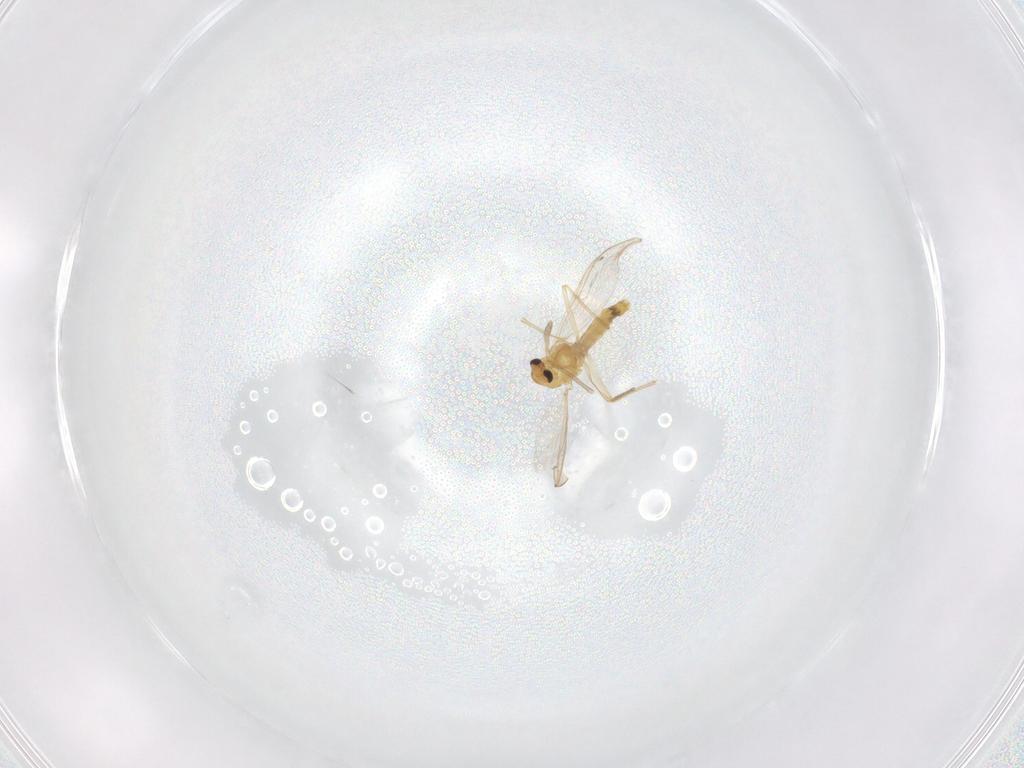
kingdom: Animalia
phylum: Arthropoda
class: Insecta
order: Diptera
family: Chironomidae
